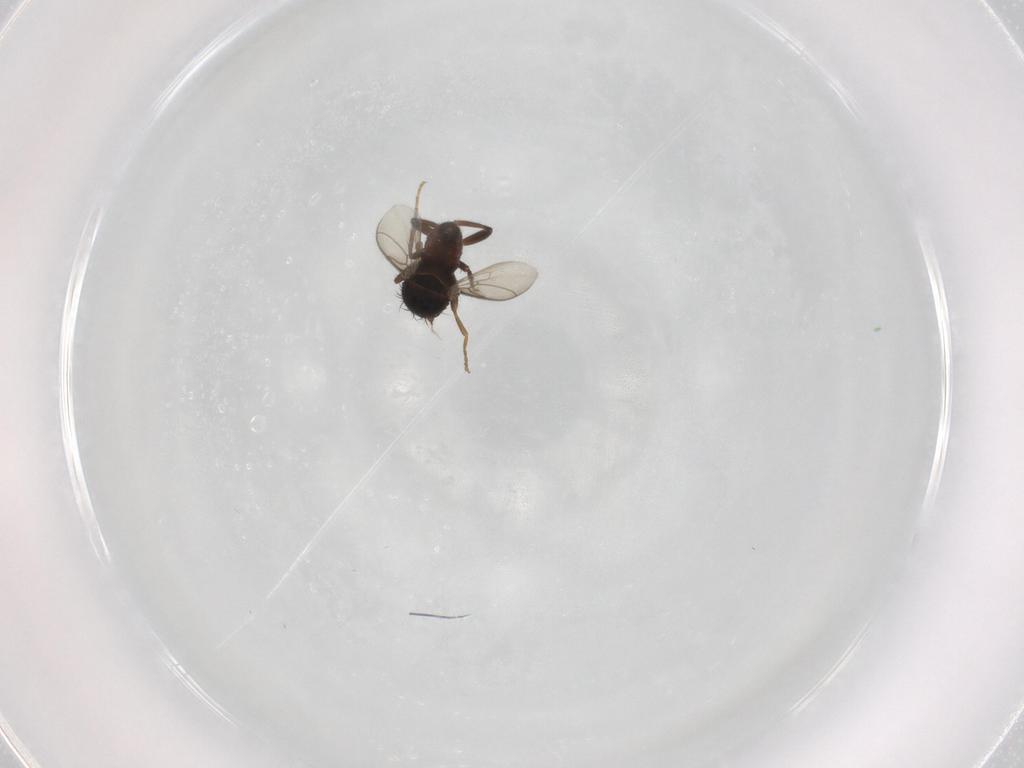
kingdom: Animalia
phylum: Arthropoda
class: Insecta
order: Diptera
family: Sphaeroceridae
